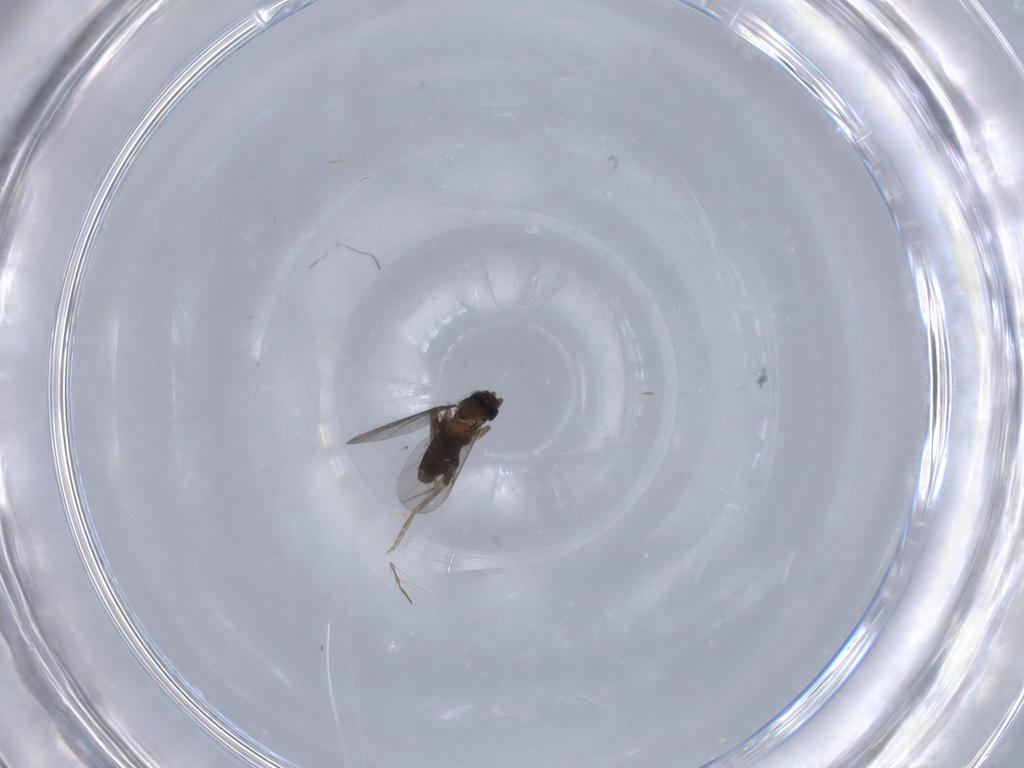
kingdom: Animalia
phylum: Arthropoda
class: Insecta
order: Diptera
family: Chironomidae
